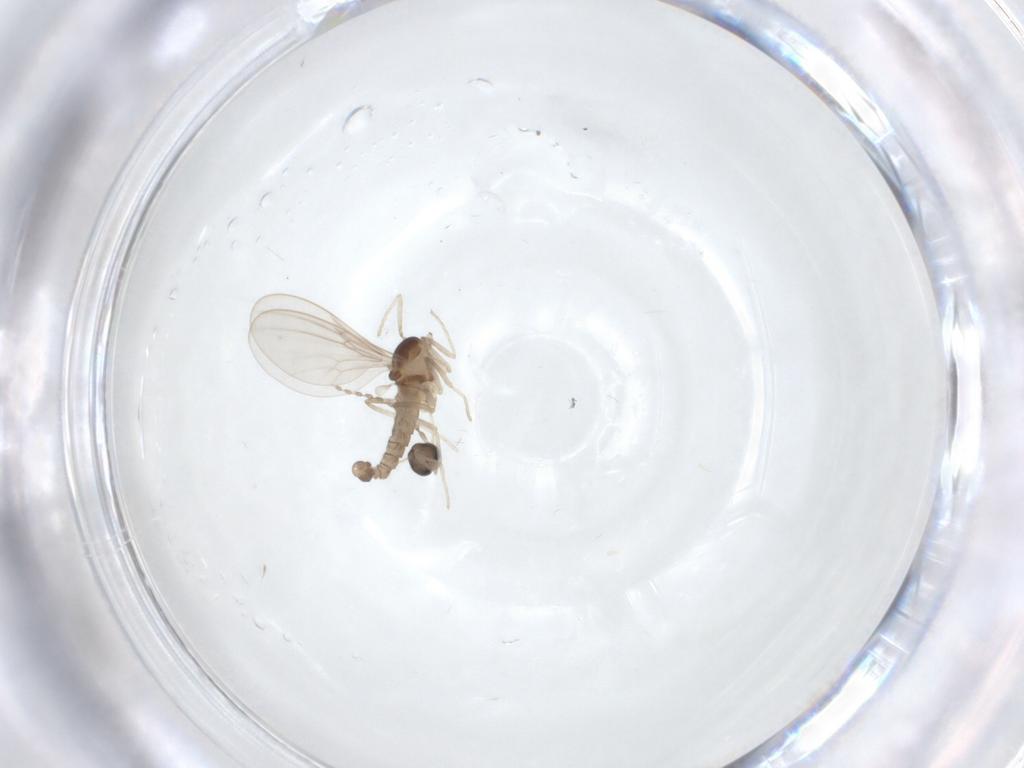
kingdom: Animalia
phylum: Arthropoda
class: Insecta
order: Diptera
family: Cecidomyiidae
